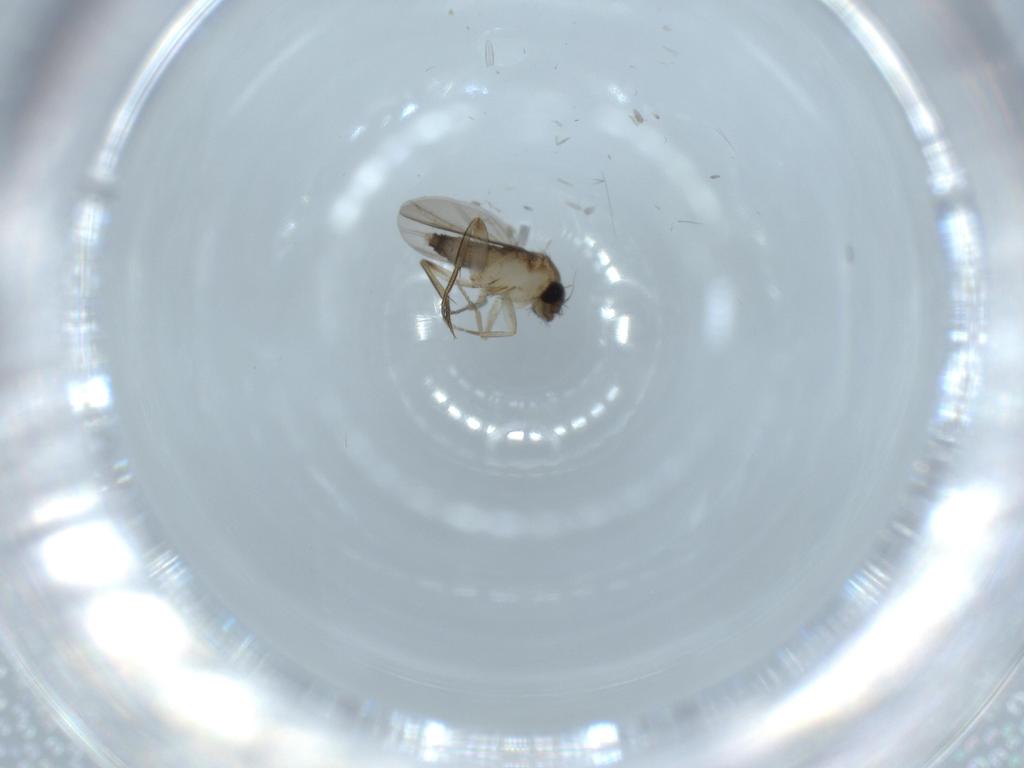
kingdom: Animalia
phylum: Arthropoda
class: Insecta
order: Diptera
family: Phoridae
